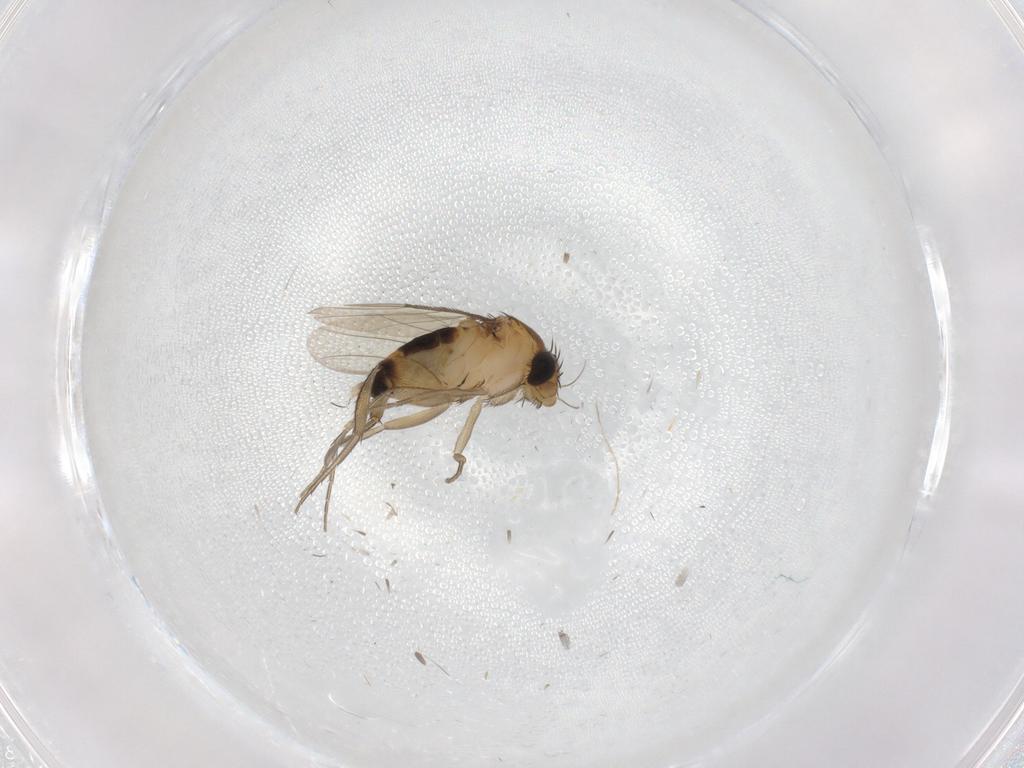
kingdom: Animalia
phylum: Arthropoda
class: Insecta
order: Diptera
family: Phoridae
